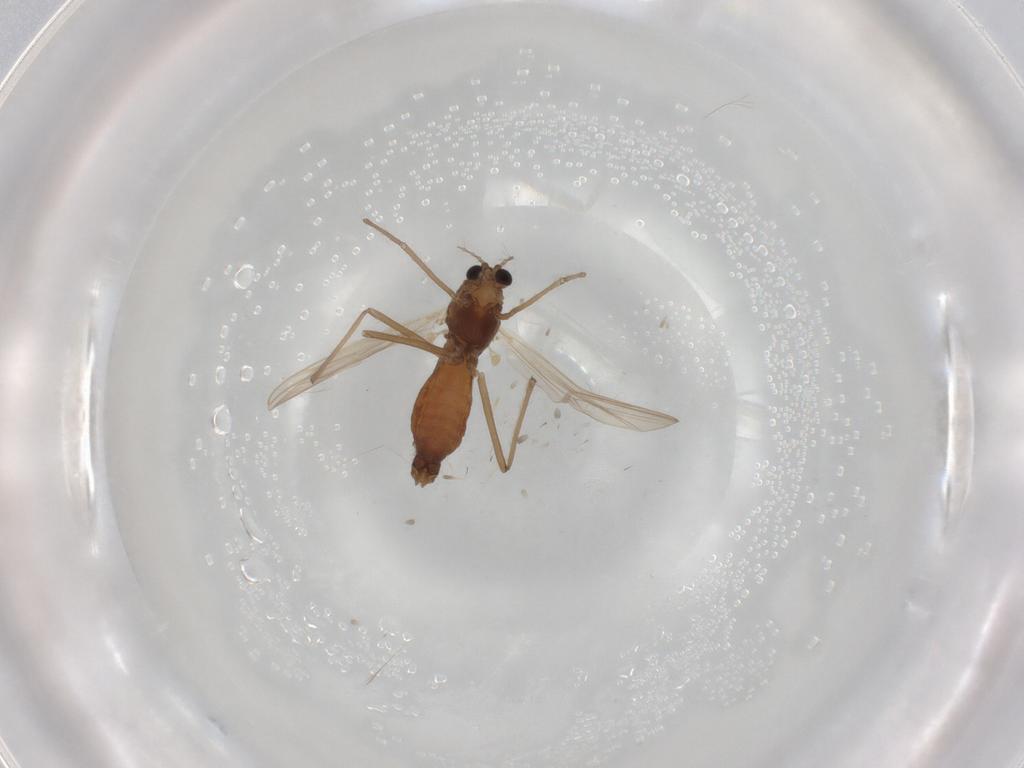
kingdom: Animalia
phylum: Arthropoda
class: Insecta
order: Diptera
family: Chironomidae
